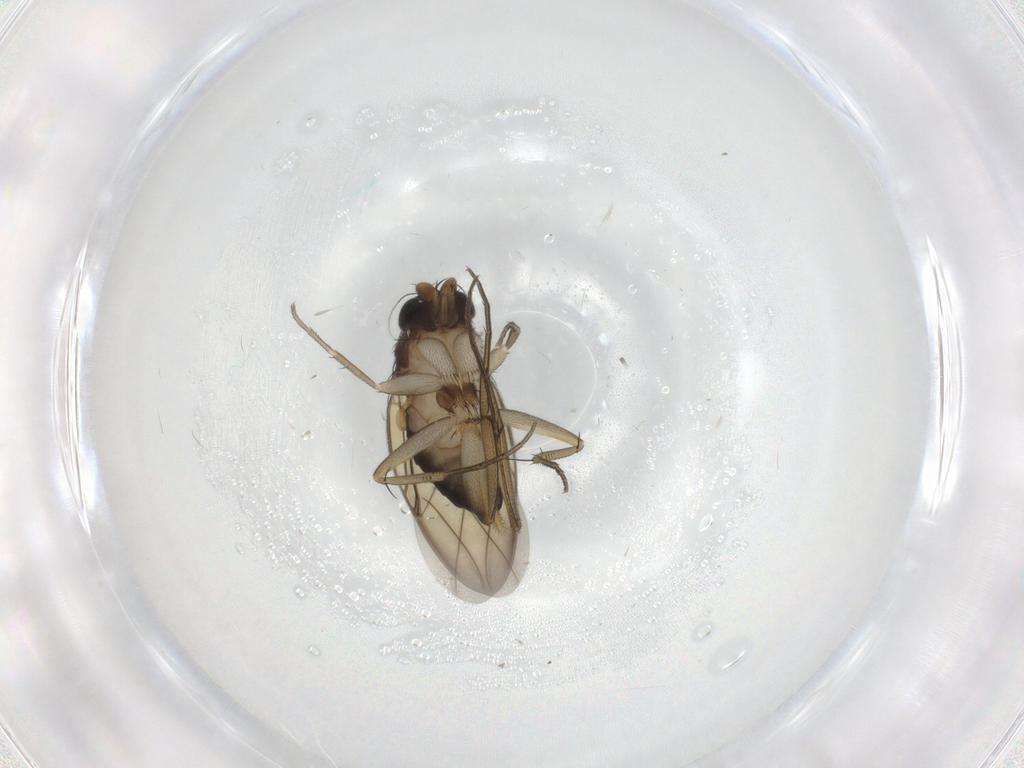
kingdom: Animalia
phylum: Arthropoda
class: Insecta
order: Diptera
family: Phoridae
